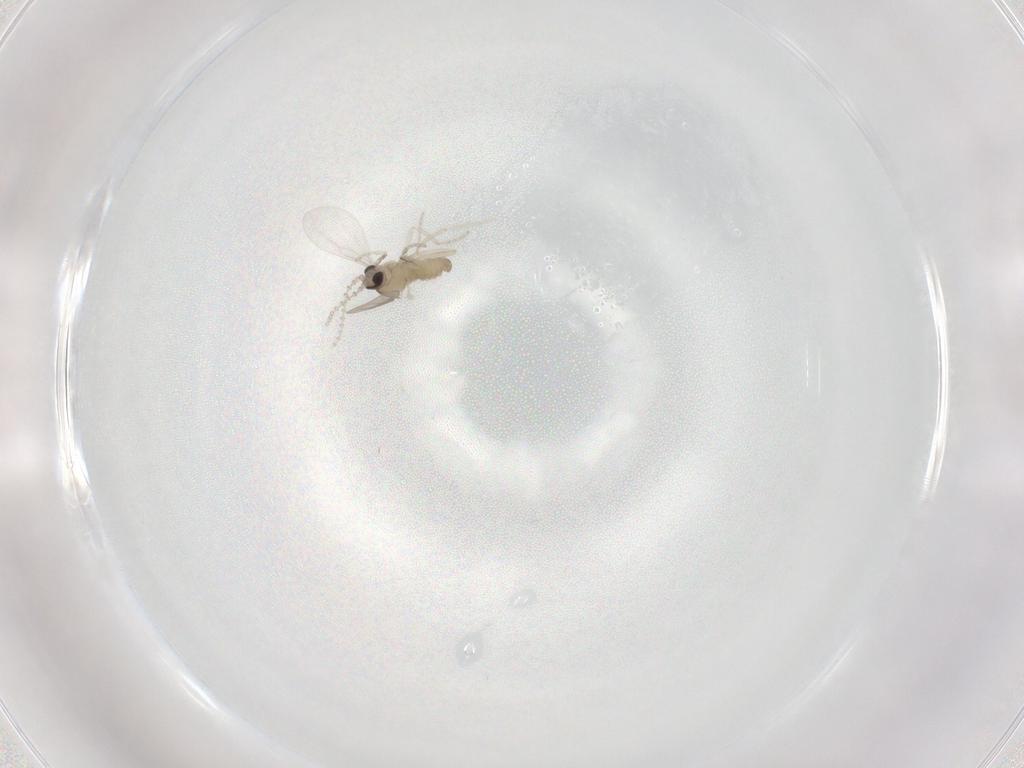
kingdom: Animalia
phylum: Arthropoda
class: Insecta
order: Diptera
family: Cecidomyiidae
